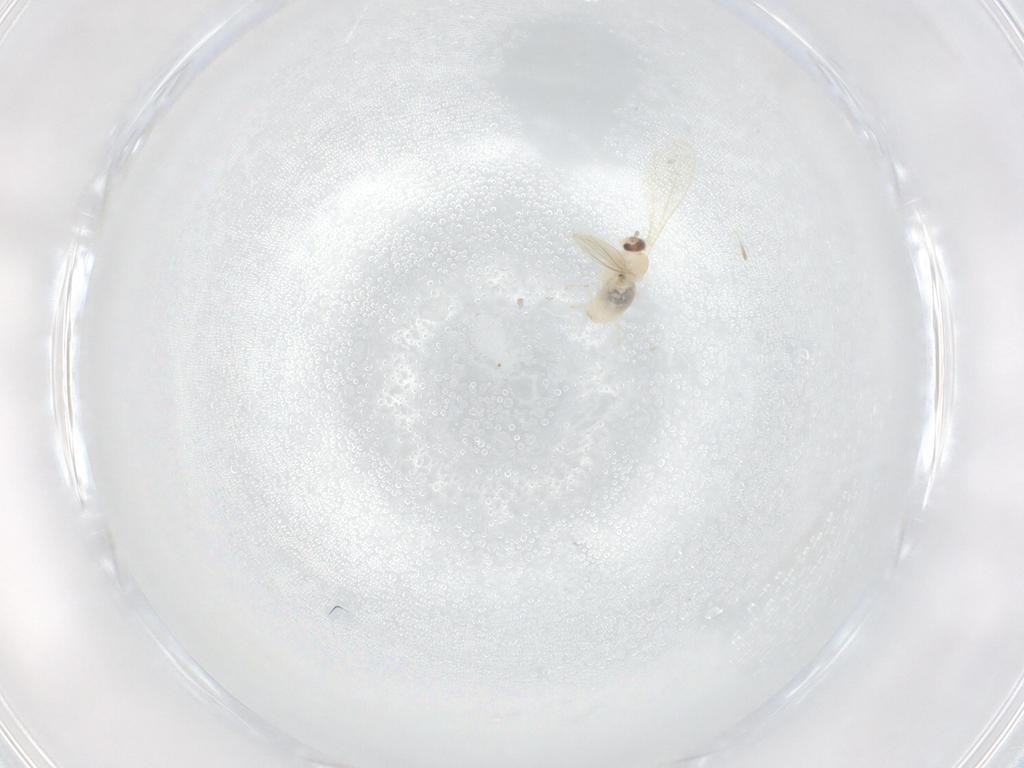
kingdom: Animalia
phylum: Arthropoda
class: Insecta
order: Diptera
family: Cecidomyiidae
